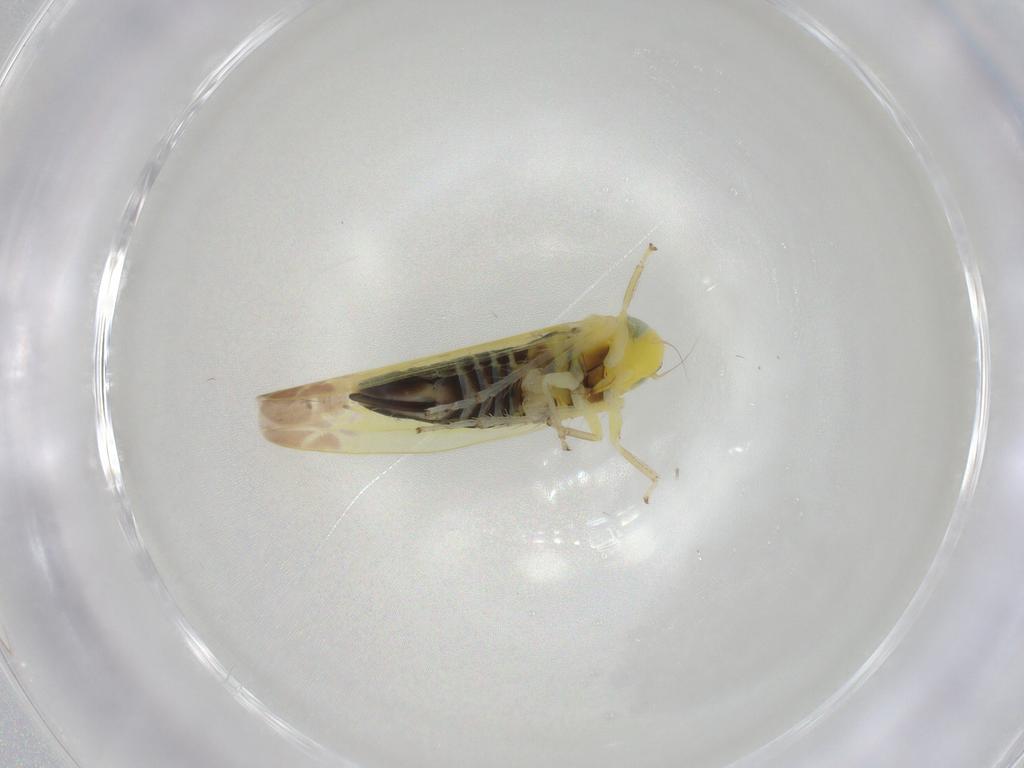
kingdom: Animalia
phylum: Arthropoda
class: Insecta
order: Hemiptera
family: Cicadellidae
